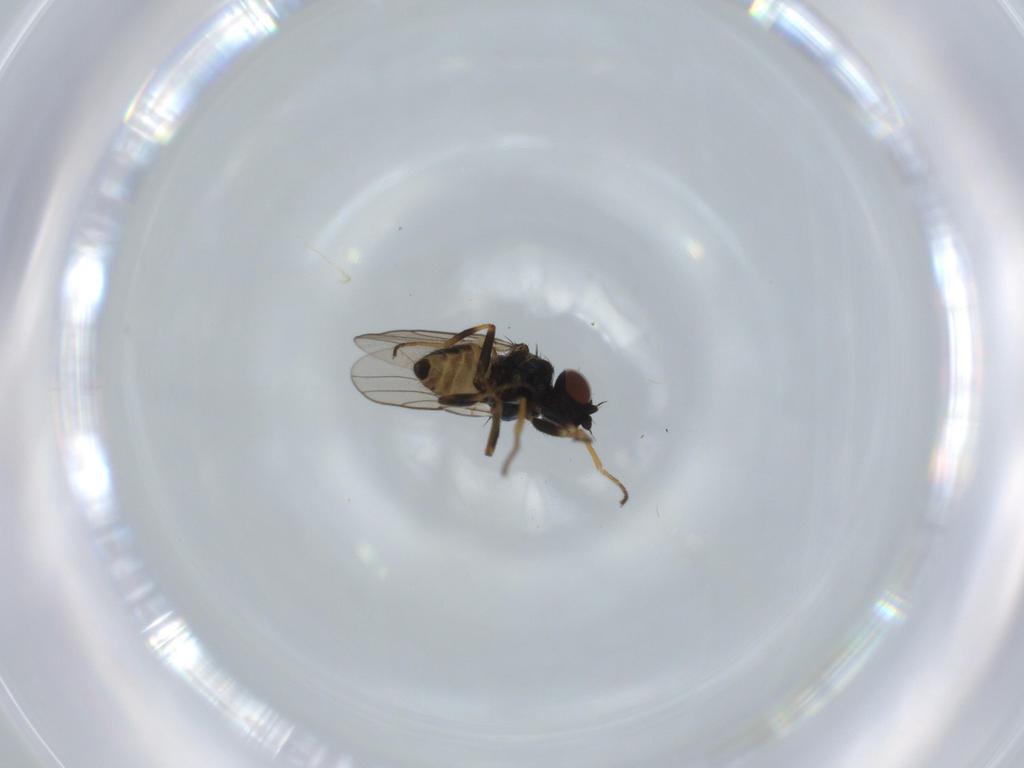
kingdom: Animalia
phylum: Arthropoda
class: Insecta
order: Diptera
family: Chloropidae
